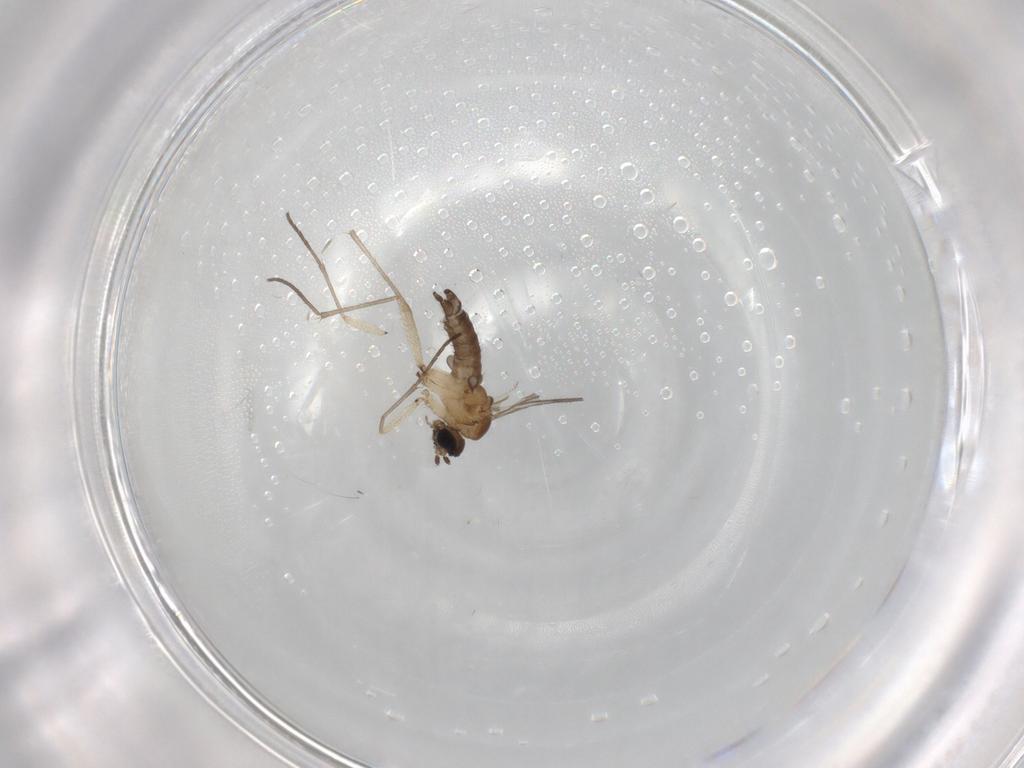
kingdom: Animalia
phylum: Arthropoda
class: Insecta
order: Diptera
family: Sciaridae
